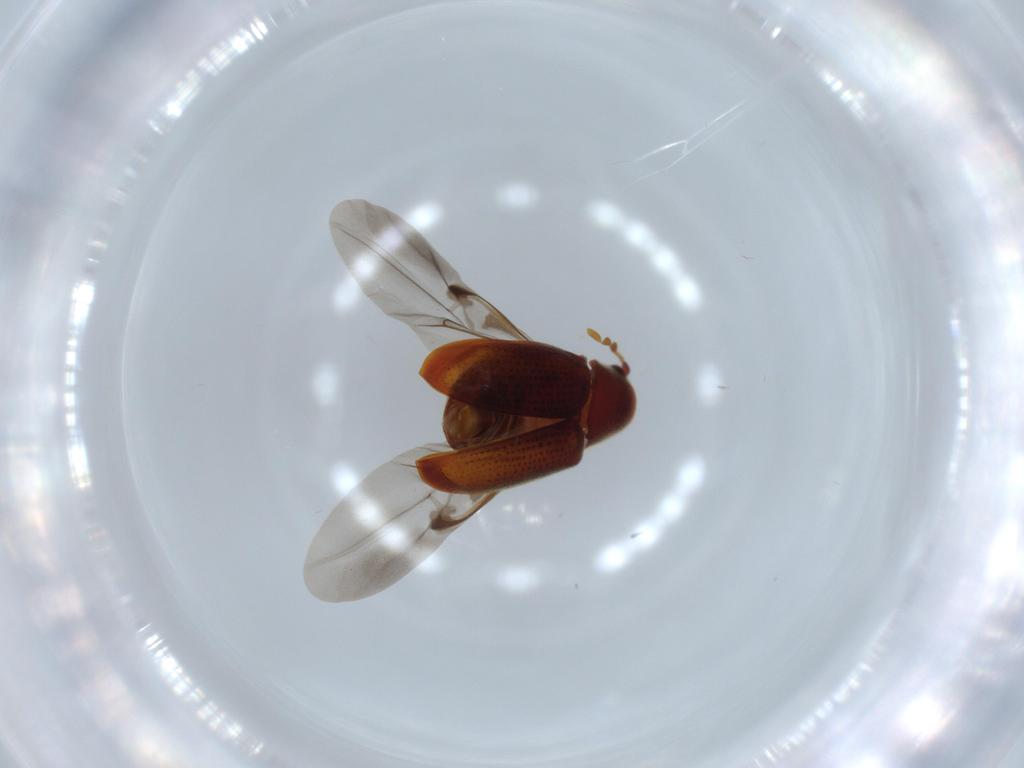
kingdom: Animalia
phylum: Arthropoda
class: Insecta
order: Coleoptera
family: Ptinidae
